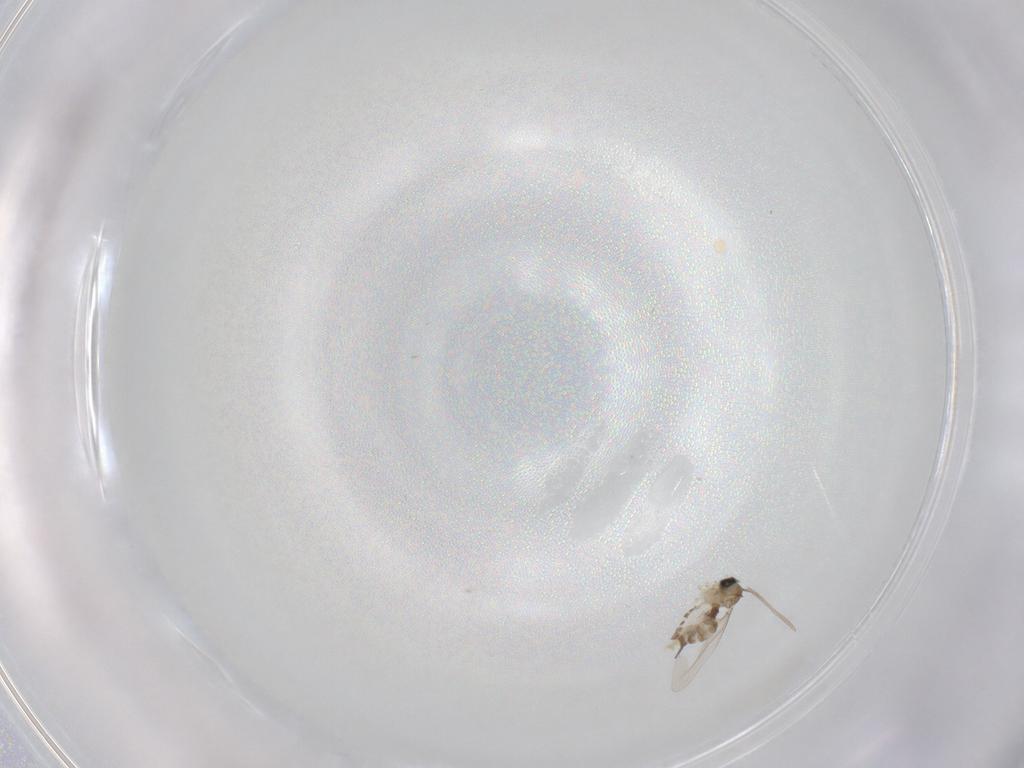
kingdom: Animalia
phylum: Arthropoda
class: Insecta
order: Diptera
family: Cecidomyiidae
